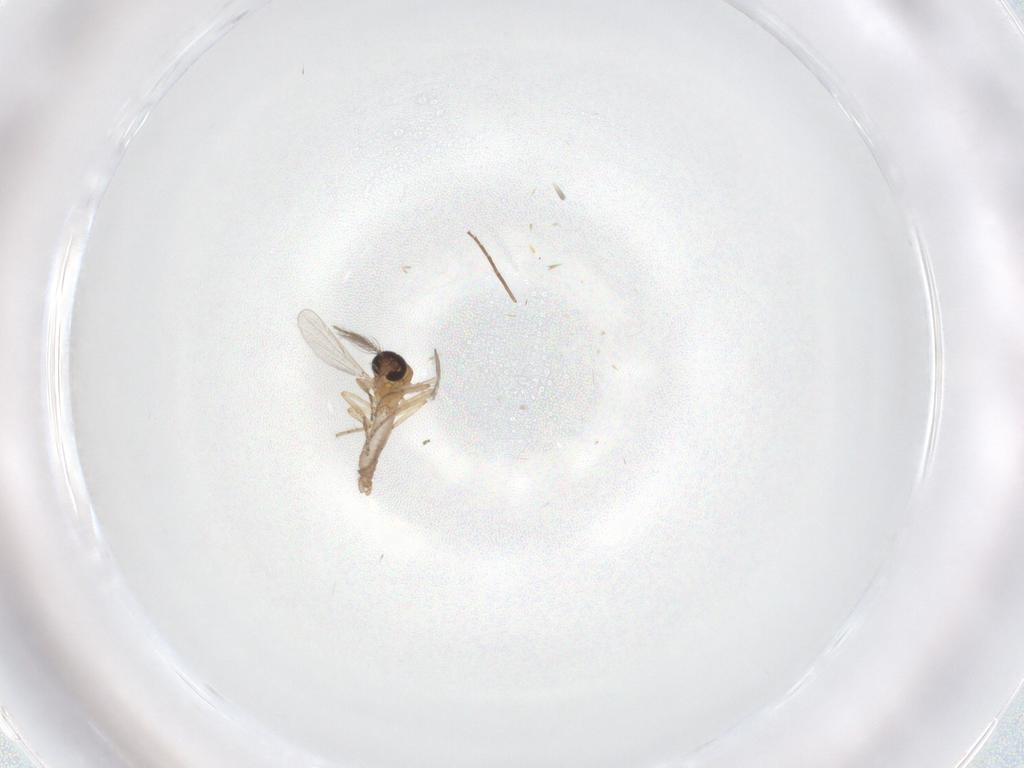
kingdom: Animalia
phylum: Arthropoda
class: Insecta
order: Diptera
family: Ceratopogonidae
